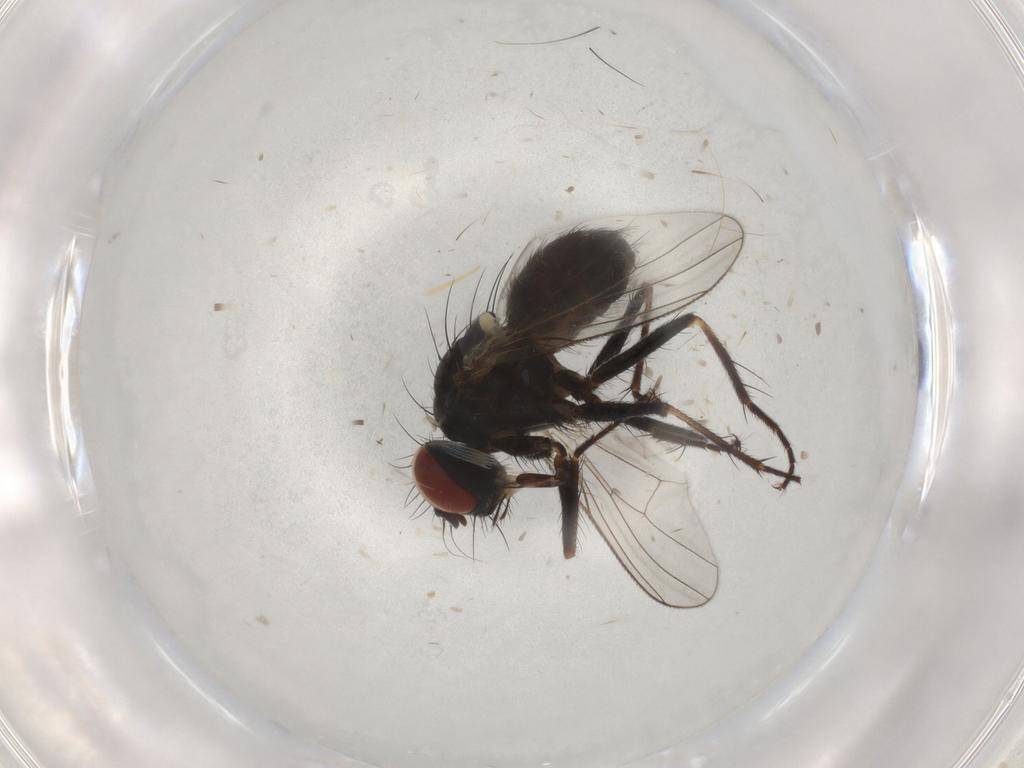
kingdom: Animalia
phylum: Arthropoda
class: Insecta
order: Diptera
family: Muscidae
